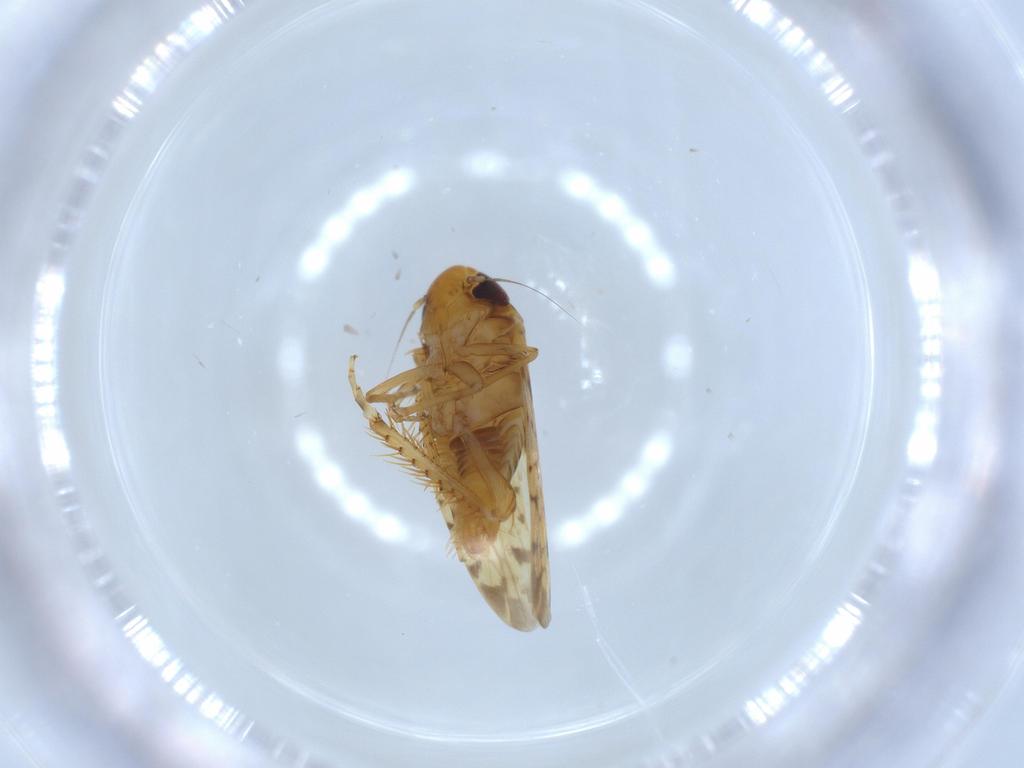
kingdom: Animalia
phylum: Arthropoda
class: Insecta
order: Hemiptera
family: Cicadellidae
